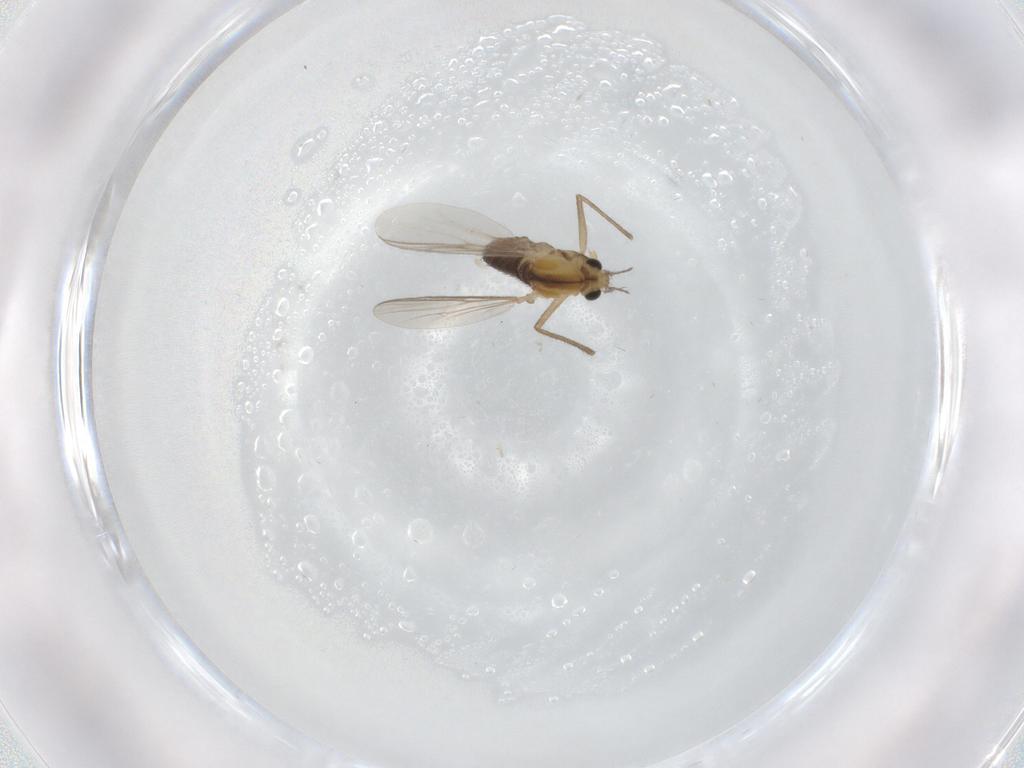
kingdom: Animalia
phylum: Arthropoda
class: Insecta
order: Diptera
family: Chironomidae
